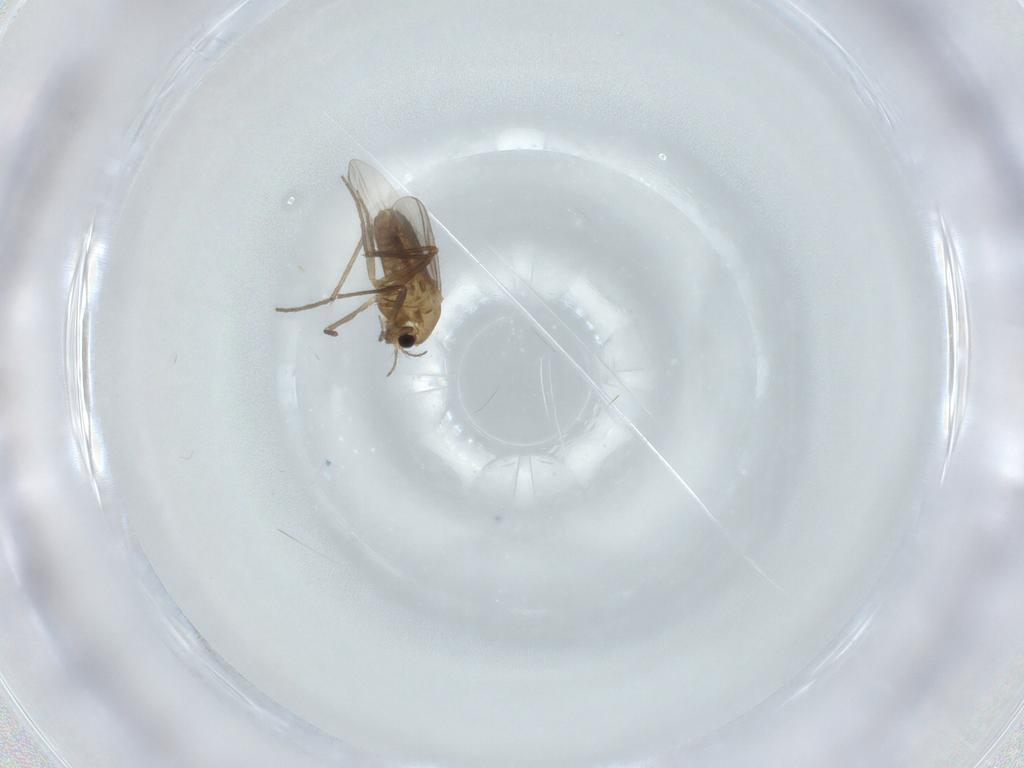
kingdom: Animalia
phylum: Arthropoda
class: Insecta
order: Diptera
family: Chironomidae
